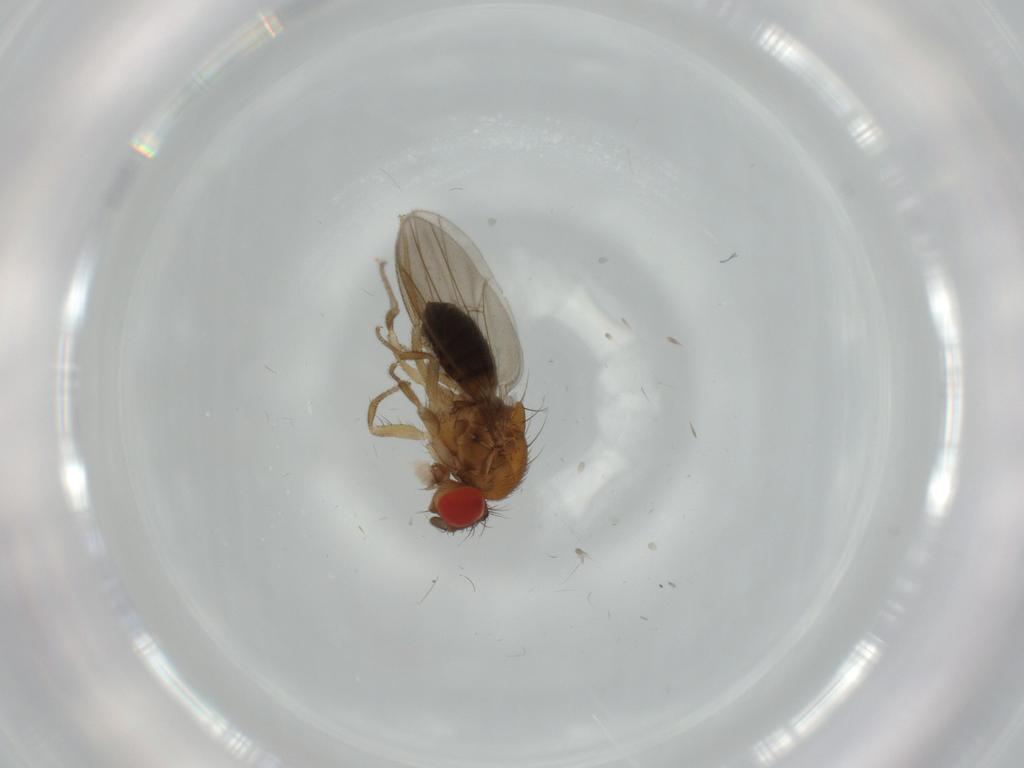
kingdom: Animalia
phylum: Arthropoda
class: Insecta
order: Diptera
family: Drosophilidae
